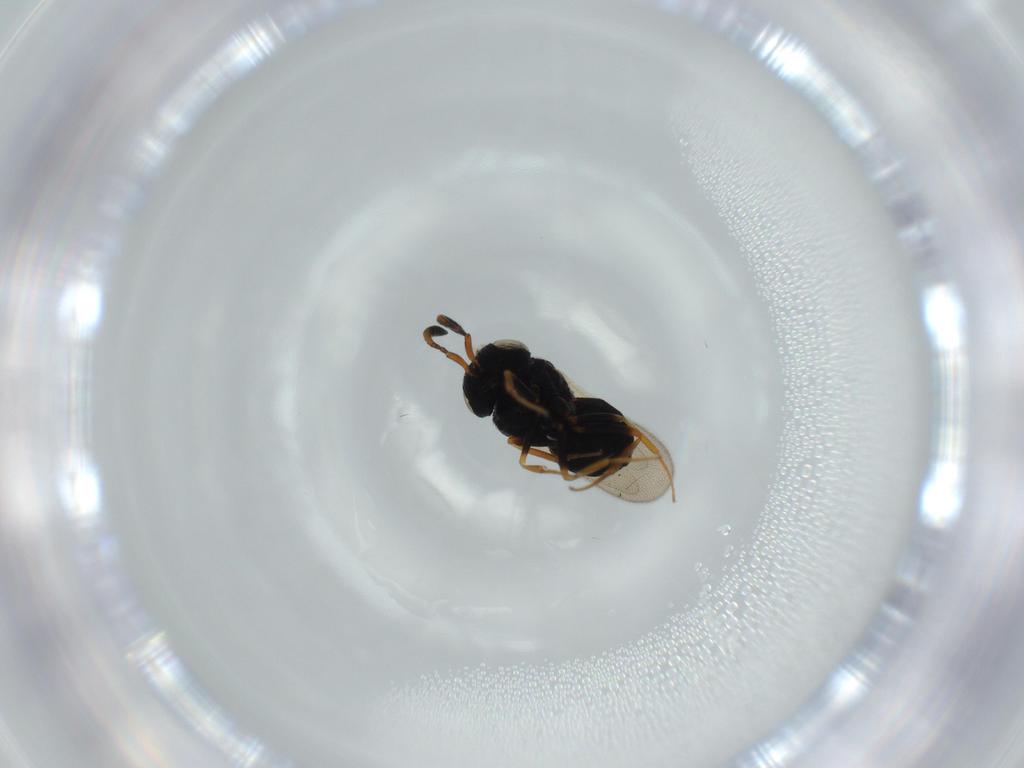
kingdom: Animalia
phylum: Arthropoda
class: Insecta
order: Hymenoptera
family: Scelionidae
